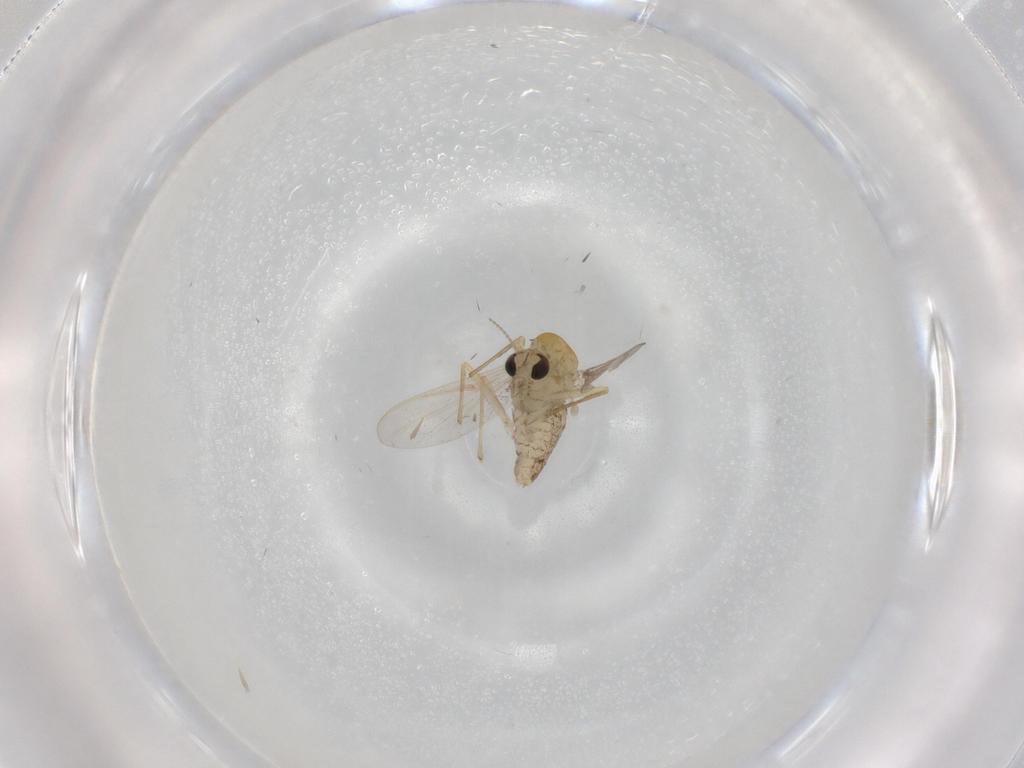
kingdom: Animalia
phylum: Arthropoda
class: Insecta
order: Diptera
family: Chironomidae
